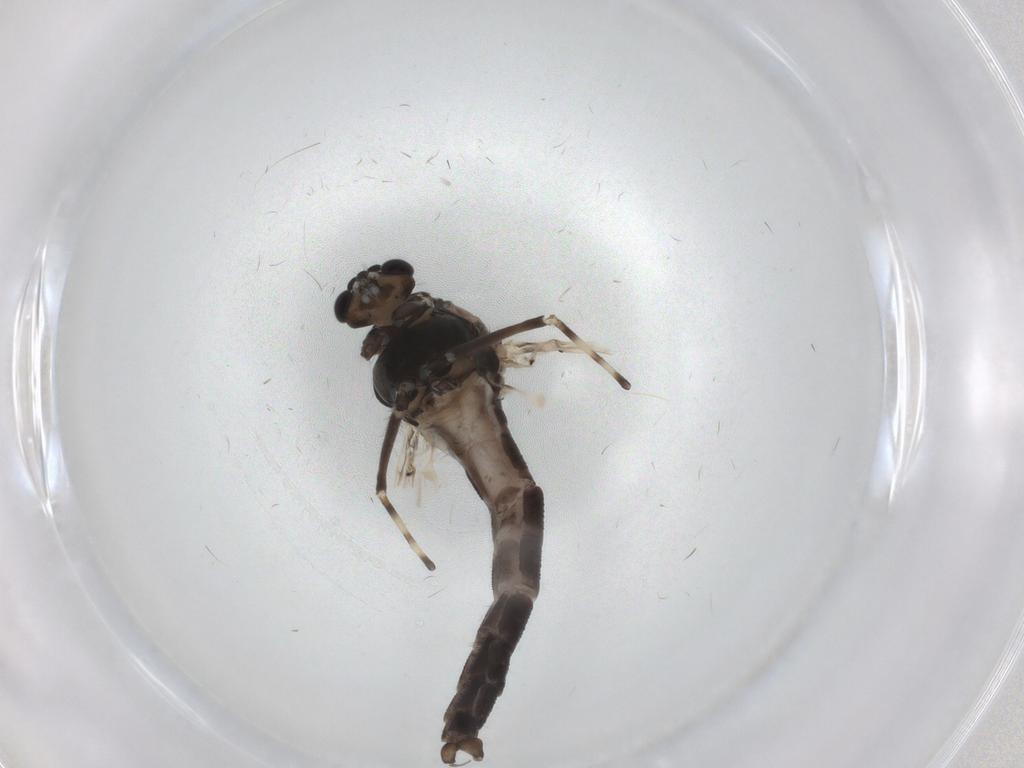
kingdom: Animalia
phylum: Arthropoda
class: Insecta
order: Diptera
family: Chironomidae
